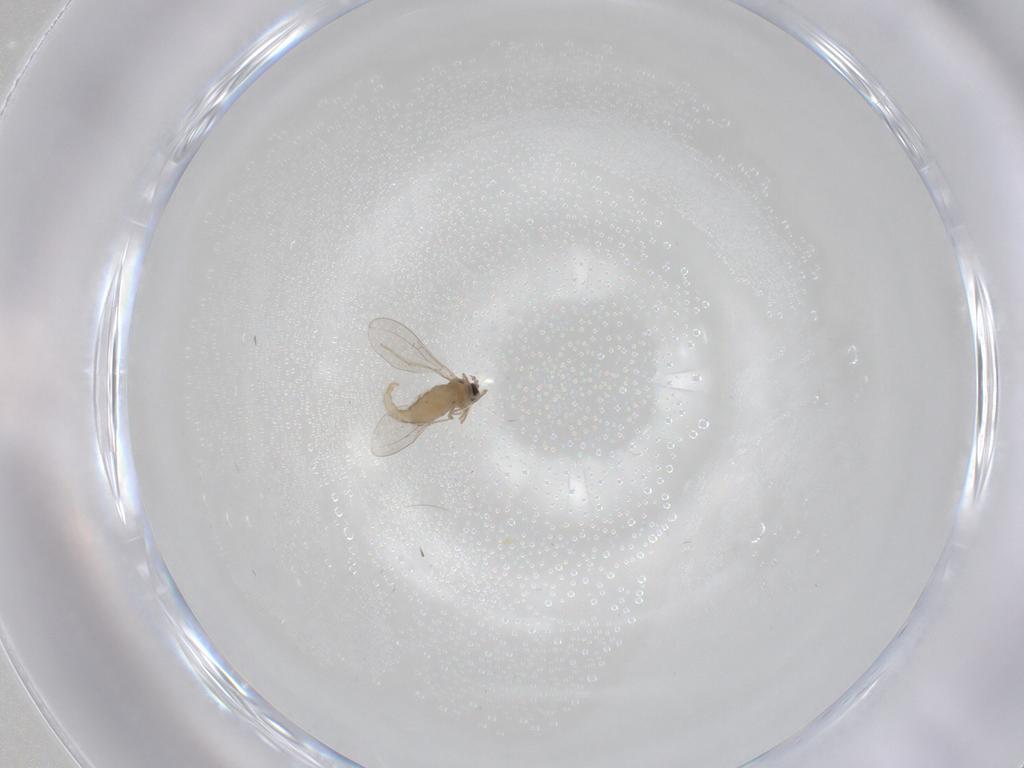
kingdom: Animalia
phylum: Arthropoda
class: Insecta
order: Diptera
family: Cecidomyiidae
